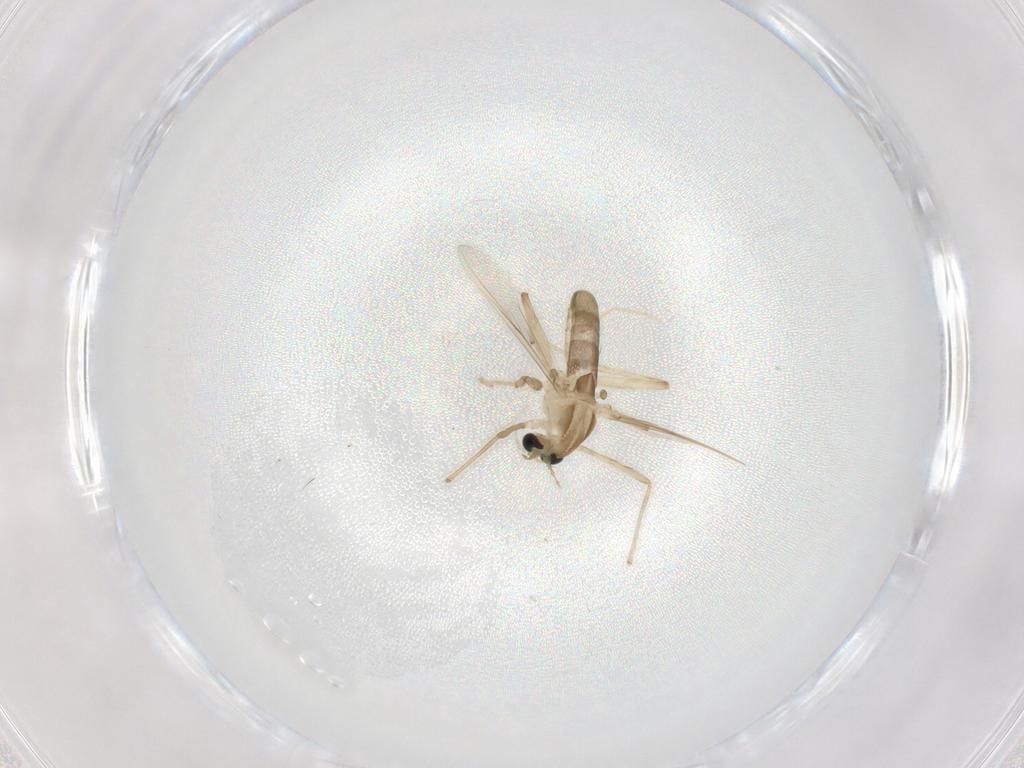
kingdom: Animalia
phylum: Arthropoda
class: Insecta
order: Diptera
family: Chironomidae
